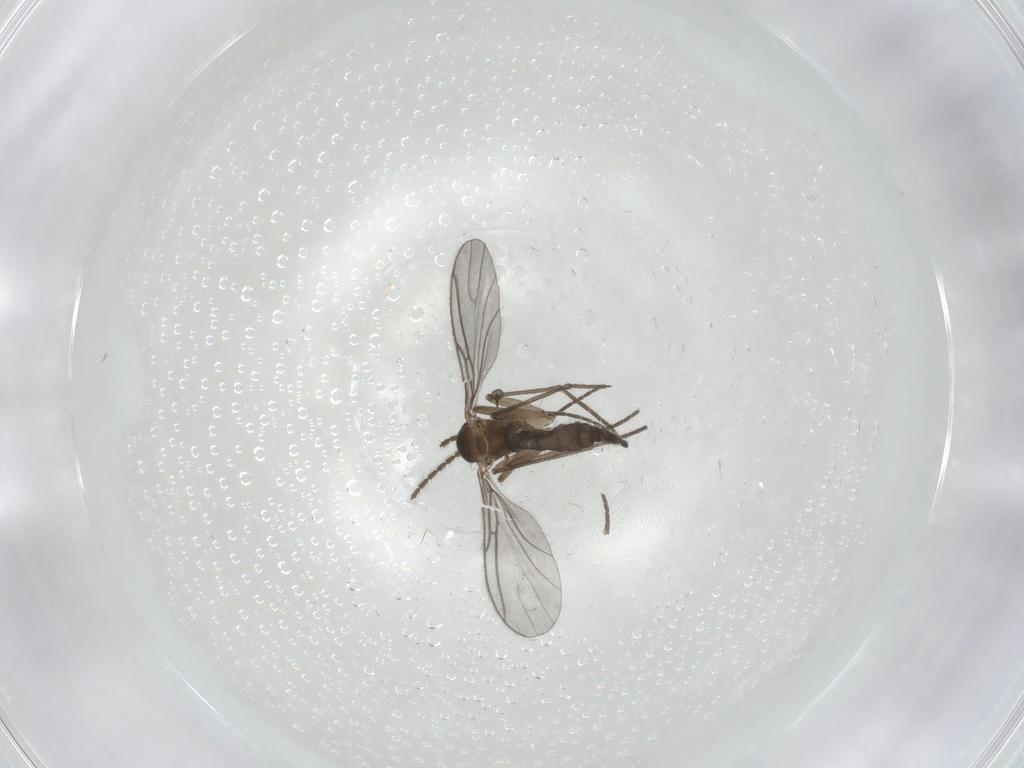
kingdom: Animalia
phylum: Arthropoda
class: Insecta
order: Diptera
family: Sciaridae
